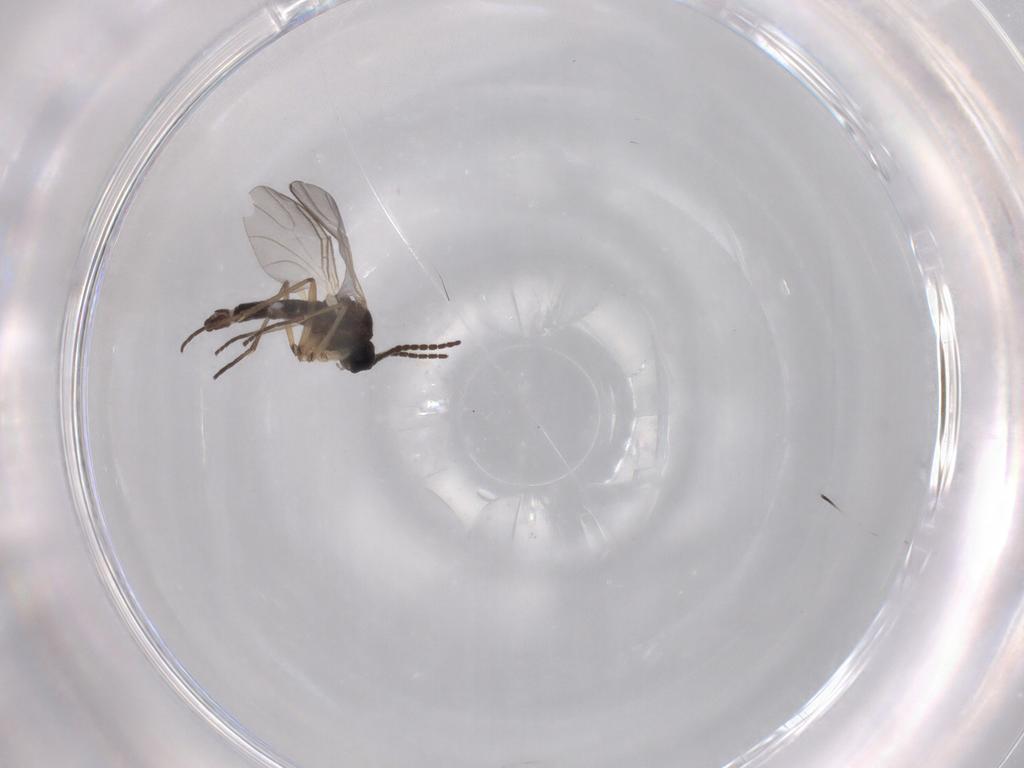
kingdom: Animalia
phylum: Arthropoda
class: Insecta
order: Diptera
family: Sciaridae
